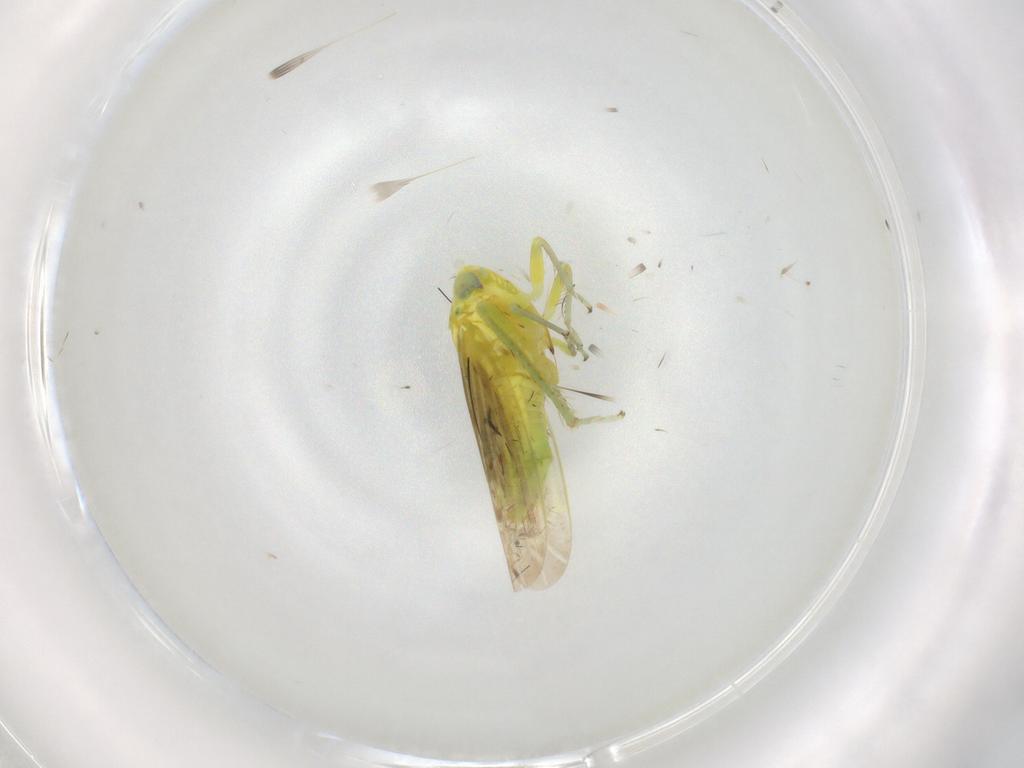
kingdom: Animalia
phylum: Arthropoda
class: Insecta
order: Hemiptera
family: Cicadellidae
